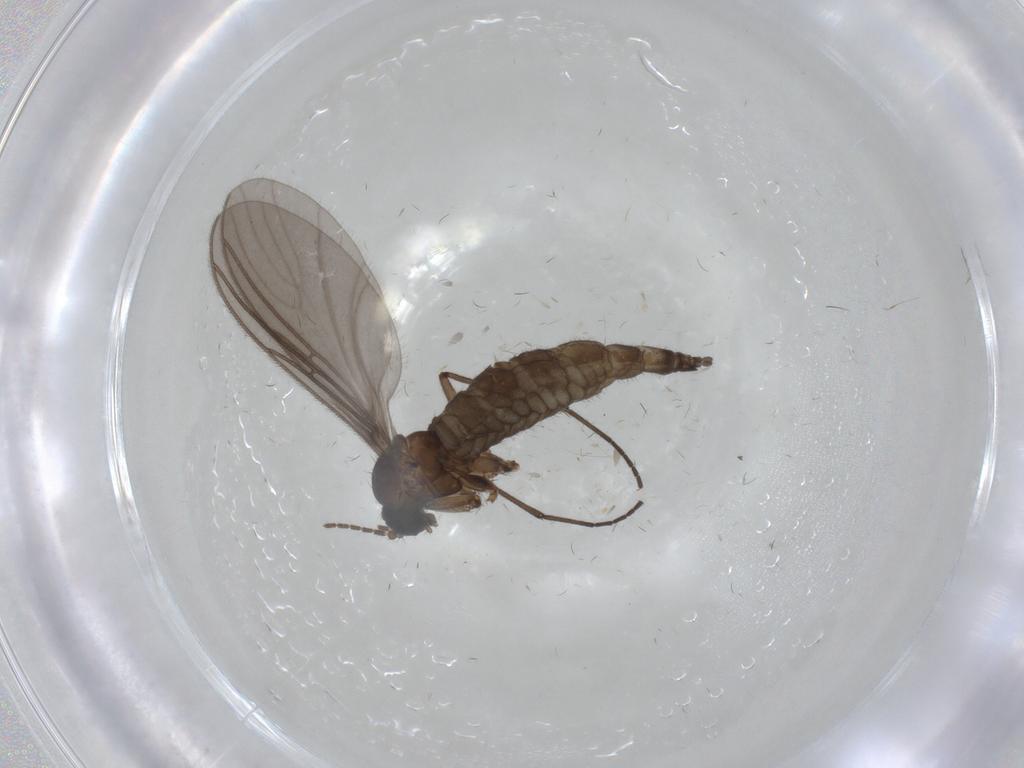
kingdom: Animalia
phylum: Arthropoda
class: Insecta
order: Diptera
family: Sciaridae
